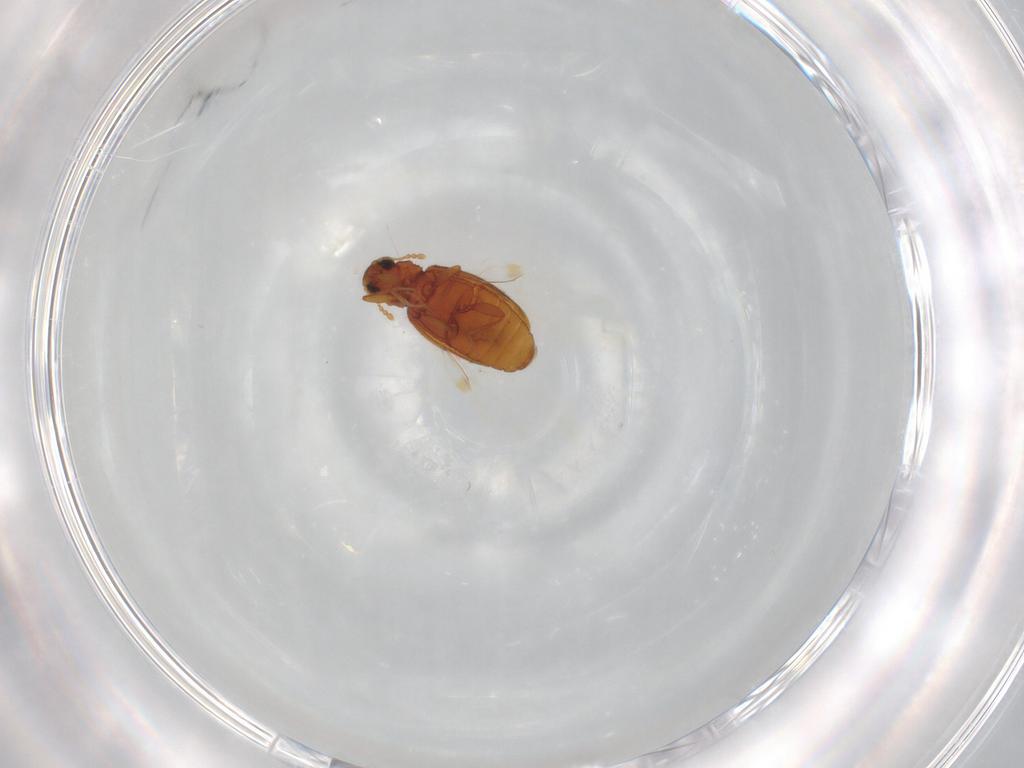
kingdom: Animalia
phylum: Arthropoda
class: Insecta
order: Coleoptera
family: Latridiidae
